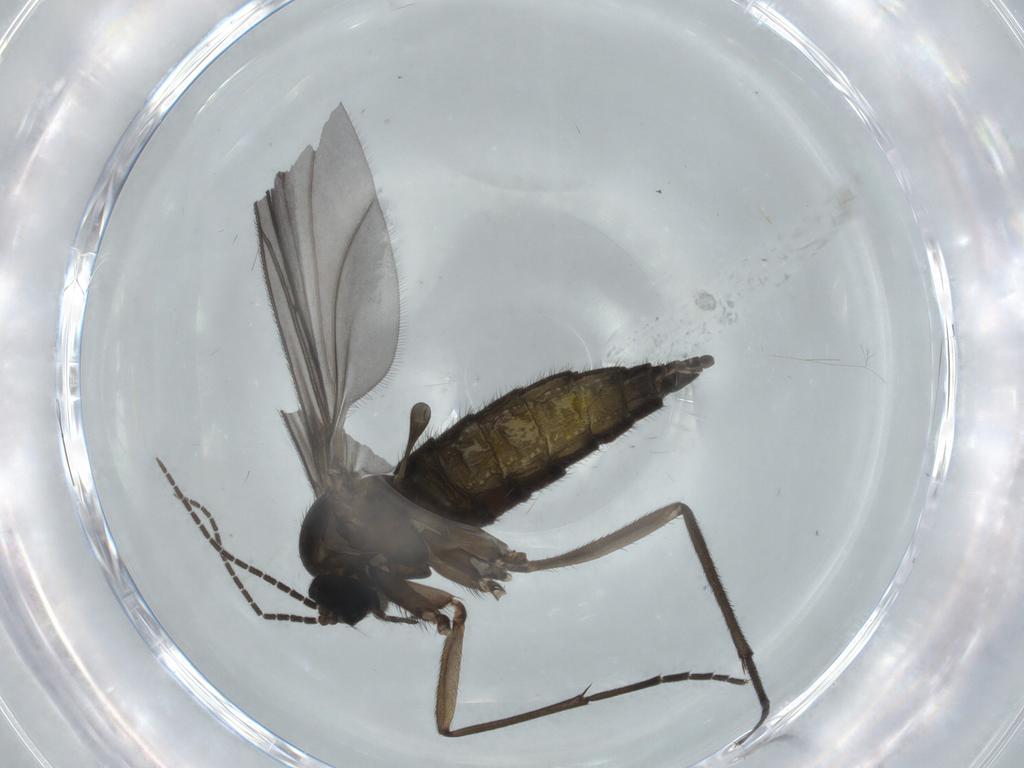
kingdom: Animalia
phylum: Arthropoda
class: Insecta
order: Diptera
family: Sciaridae
